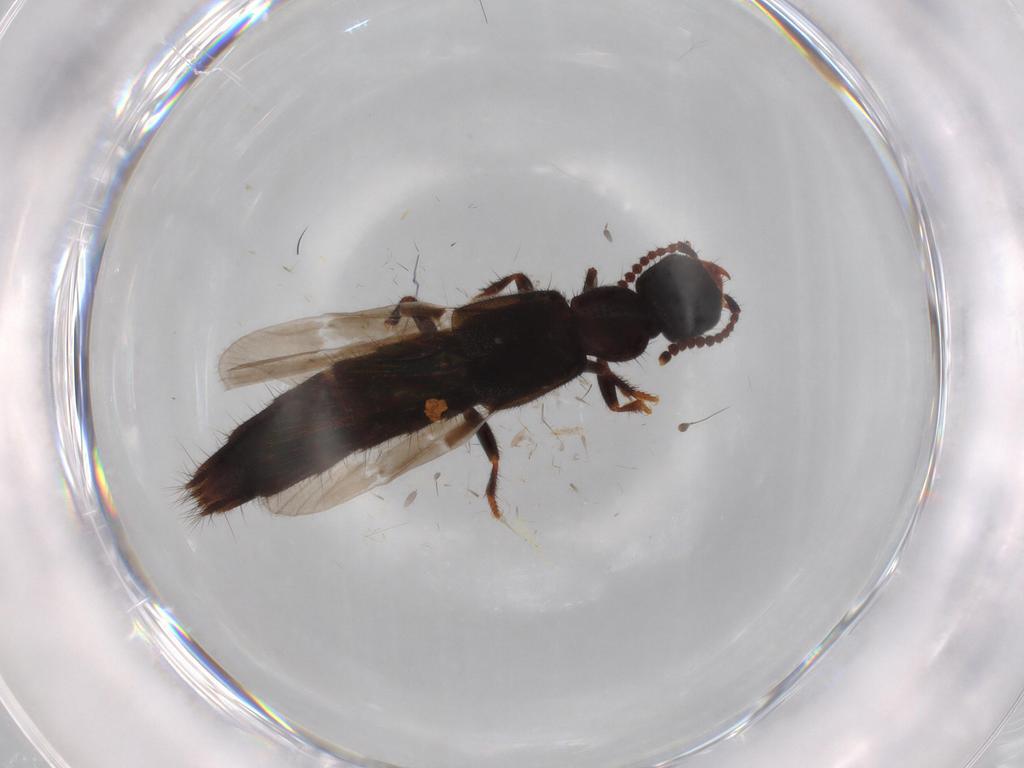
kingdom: Animalia
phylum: Arthropoda
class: Insecta
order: Coleoptera
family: Staphylinidae
